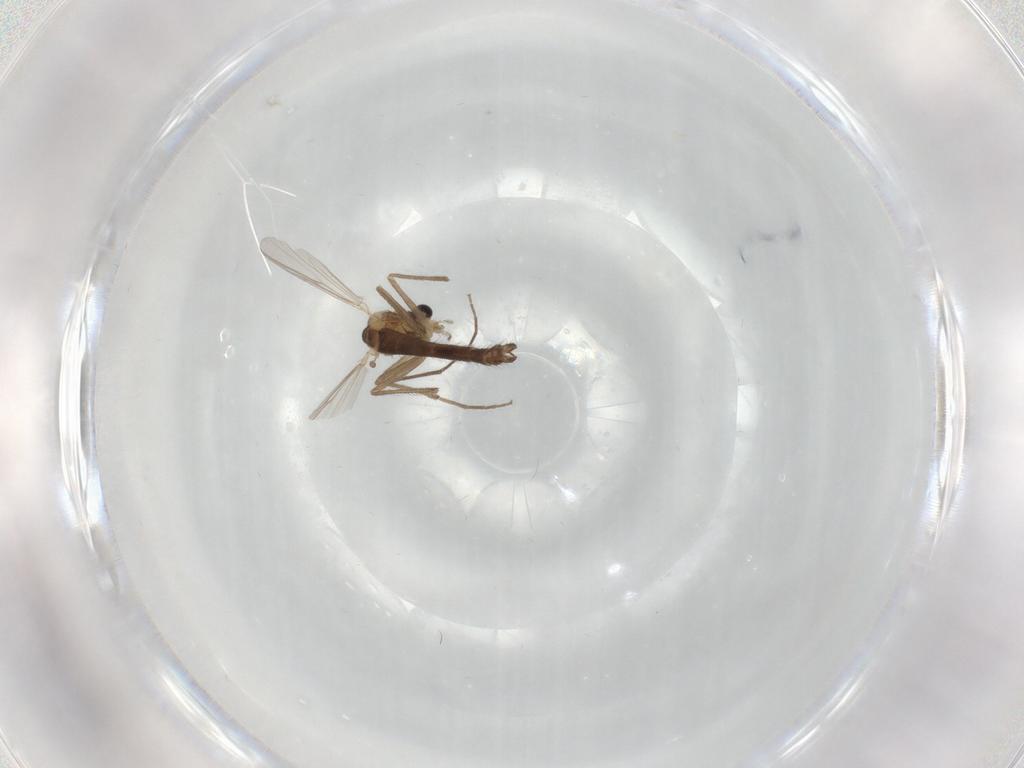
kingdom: Animalia
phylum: Arthropoda
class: Insecta
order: Diptera
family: Chironomidae
